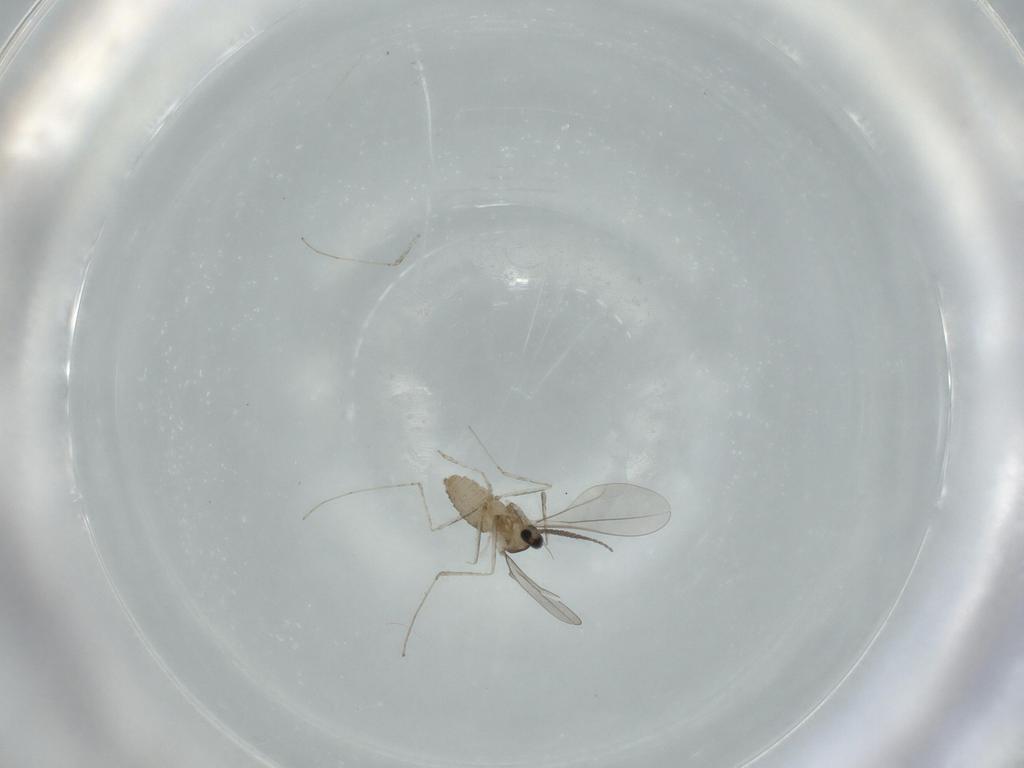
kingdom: Animalia
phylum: Arthropoda
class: Insecta
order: Diptera
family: Cecidomyiidae
